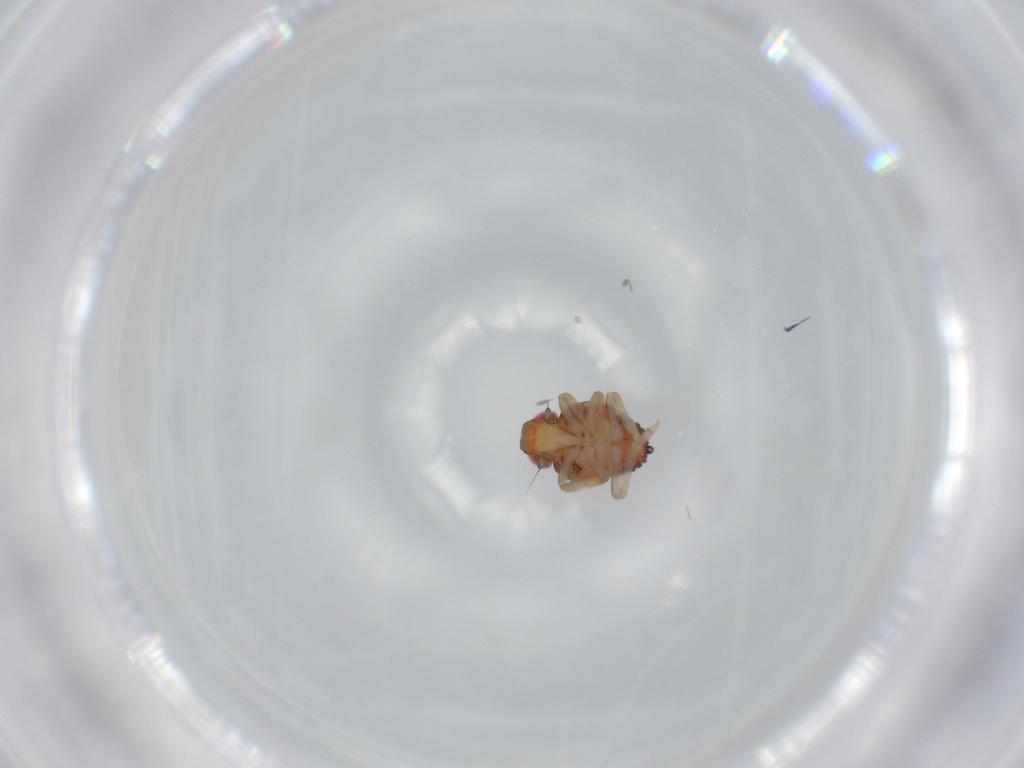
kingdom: Animalia
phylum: Arthropoda
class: Insecta
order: Hemiptera
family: Issidae
